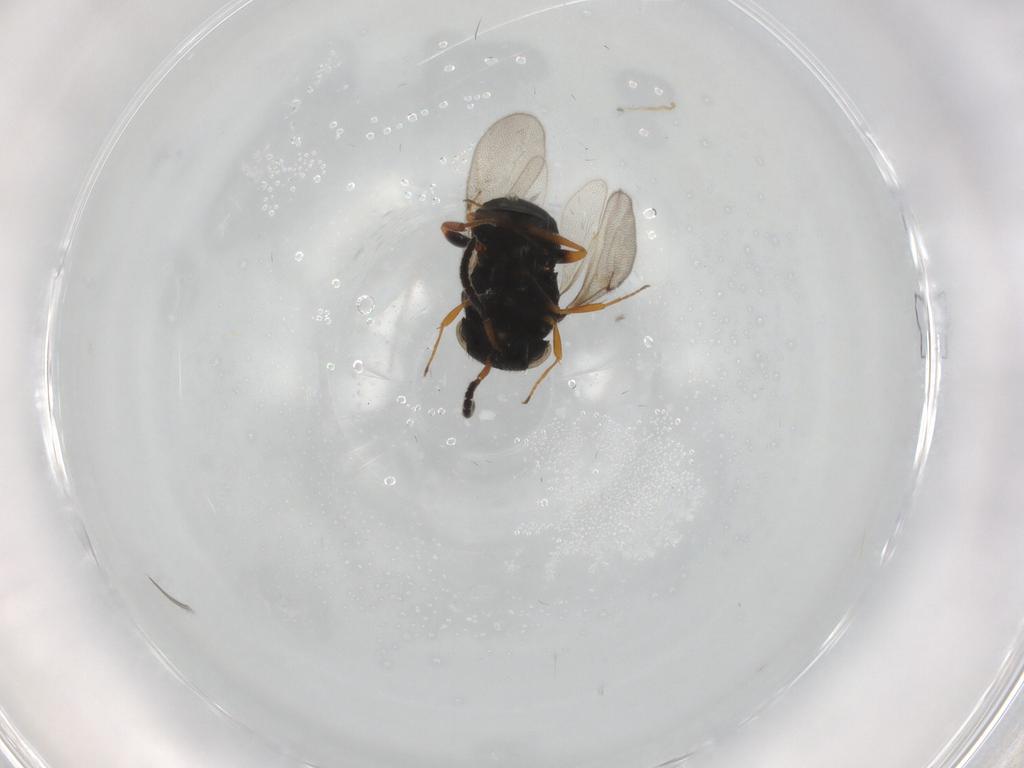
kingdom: Animalia
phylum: Arthropoda
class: Insecta
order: Hymenoptera
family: Scelionidae
